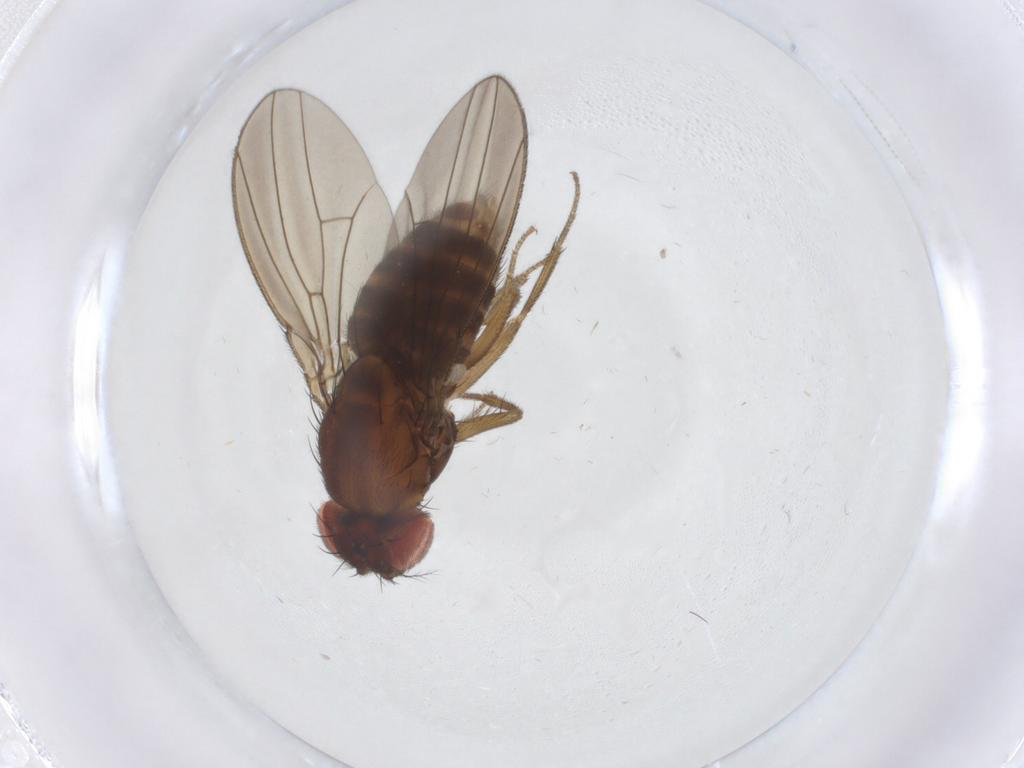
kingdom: Animalia
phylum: Arthropoda
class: Insecta
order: Diptera
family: Drosophilidae
